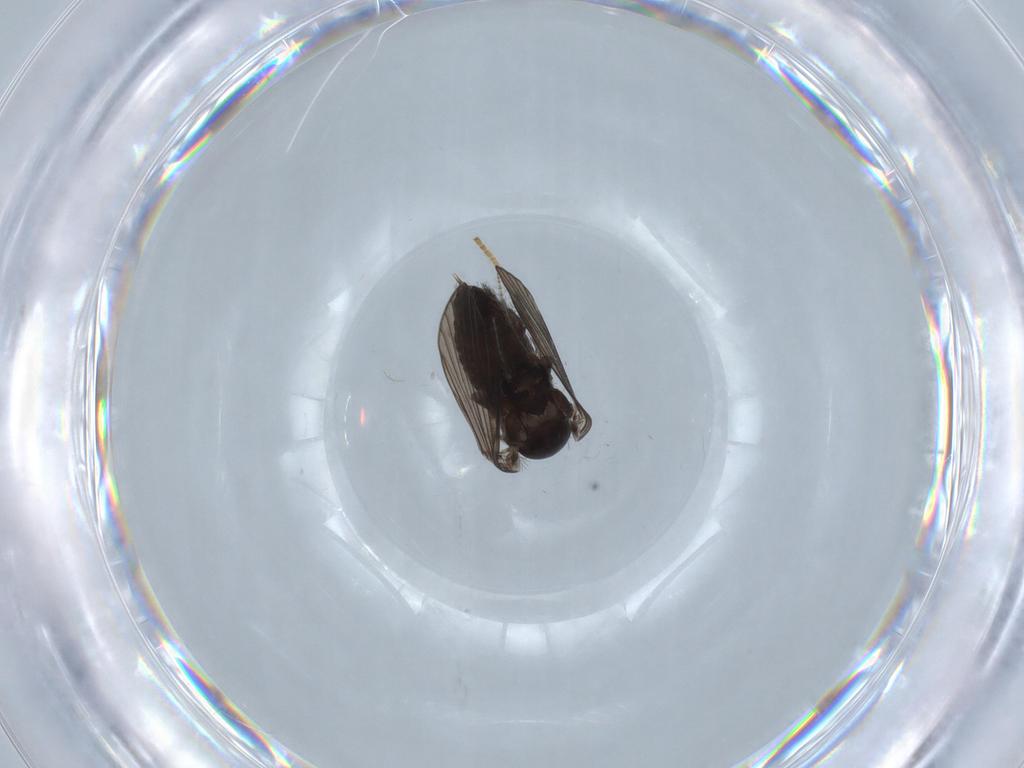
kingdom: Animalia
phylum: Arthropoda
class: Insecta
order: Diptera
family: Psychodidae
